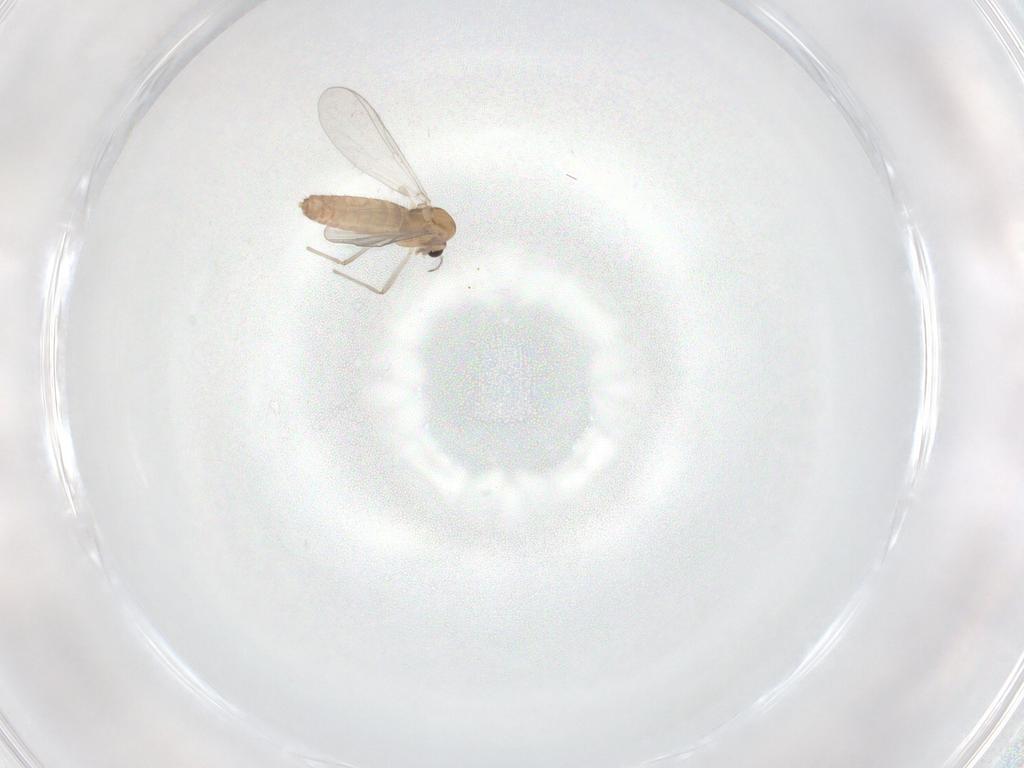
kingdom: Animalia
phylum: Arthropoda
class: Insecta
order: Diptera
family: Chironomidae
